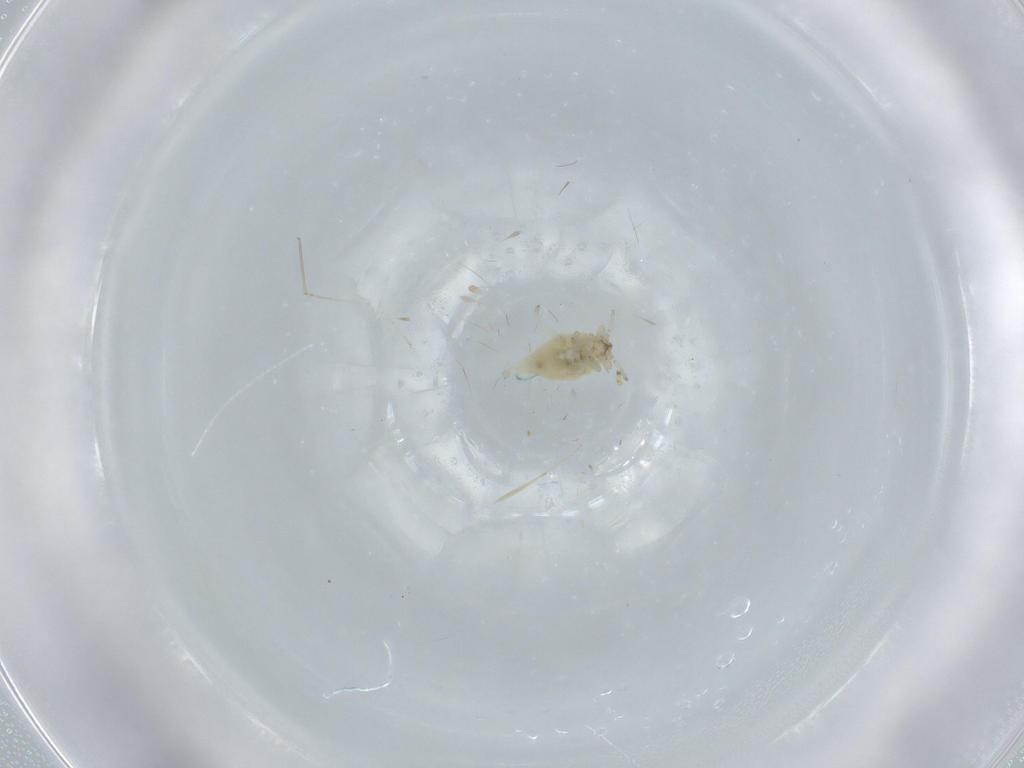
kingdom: Animalia
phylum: Arthropoda
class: Insecta
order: Neuroptera
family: Coniopterygidae
